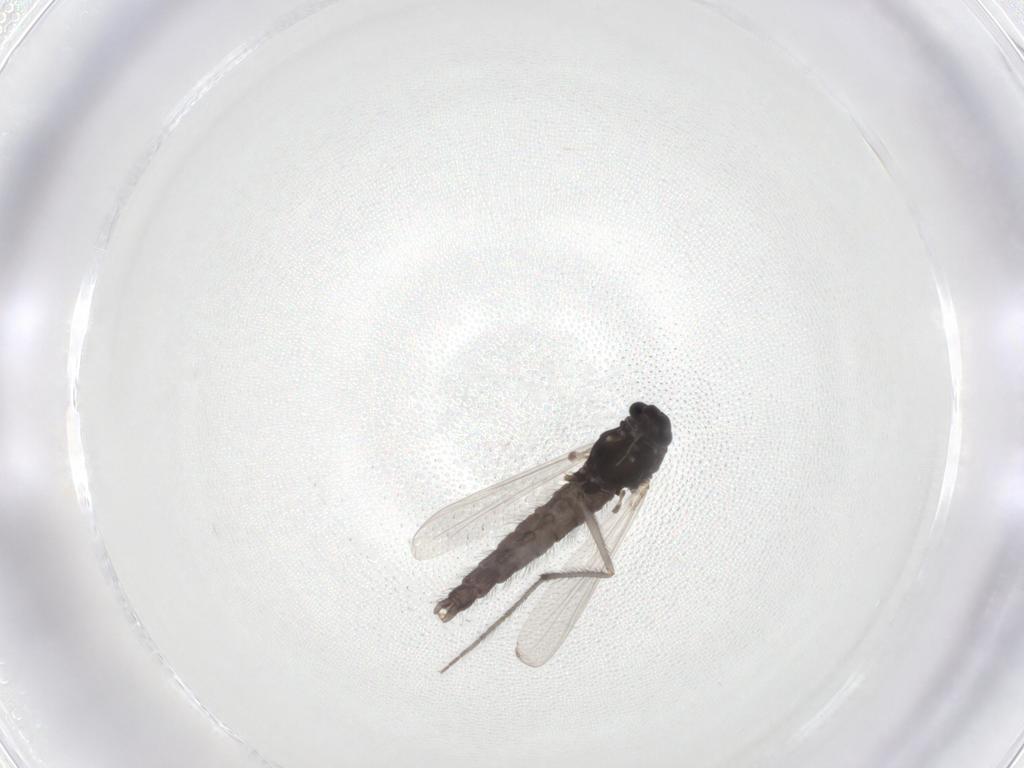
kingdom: Animalia
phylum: Arthropoda
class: Insecta
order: Diptera
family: Chironomidae
